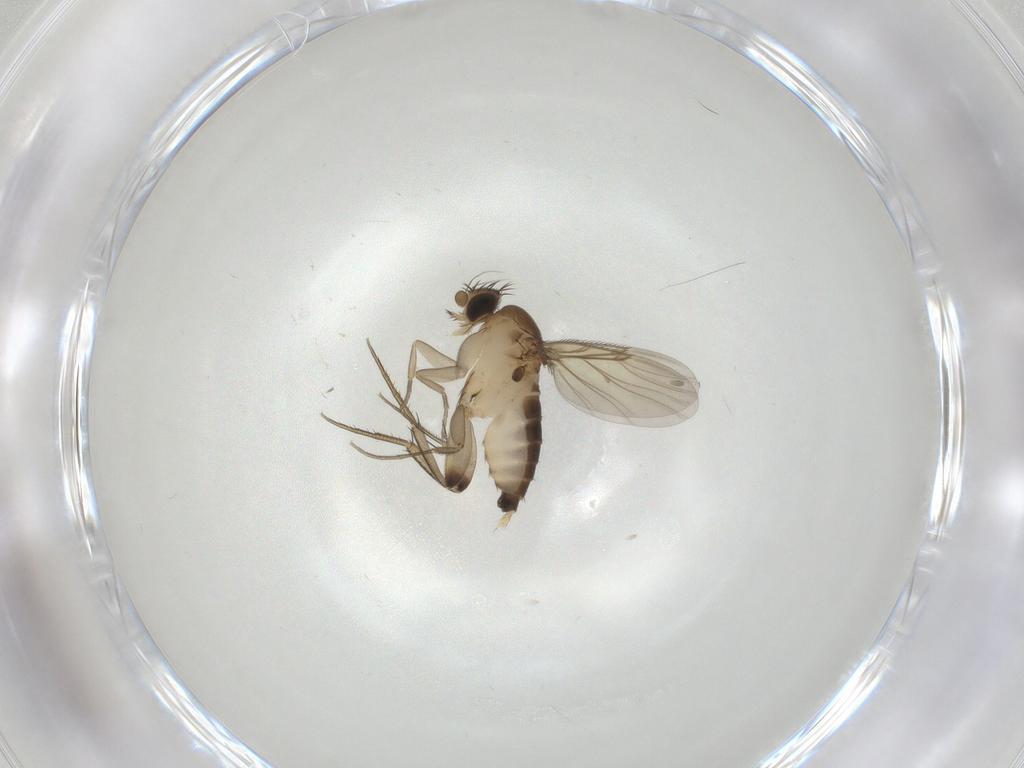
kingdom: Animalia
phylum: Arthropoda
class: Insecta
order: Diptera
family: Phoridae
